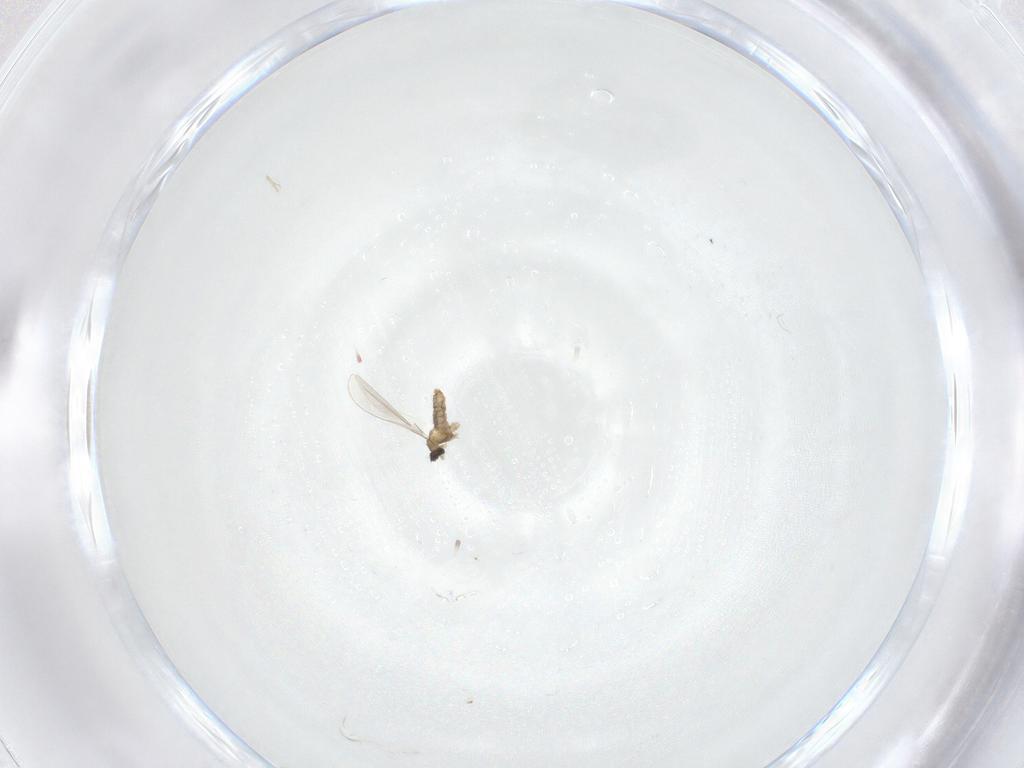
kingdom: Animalia
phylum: Arthropoda
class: Insecta
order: Diptera
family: Cecidomyiidae
